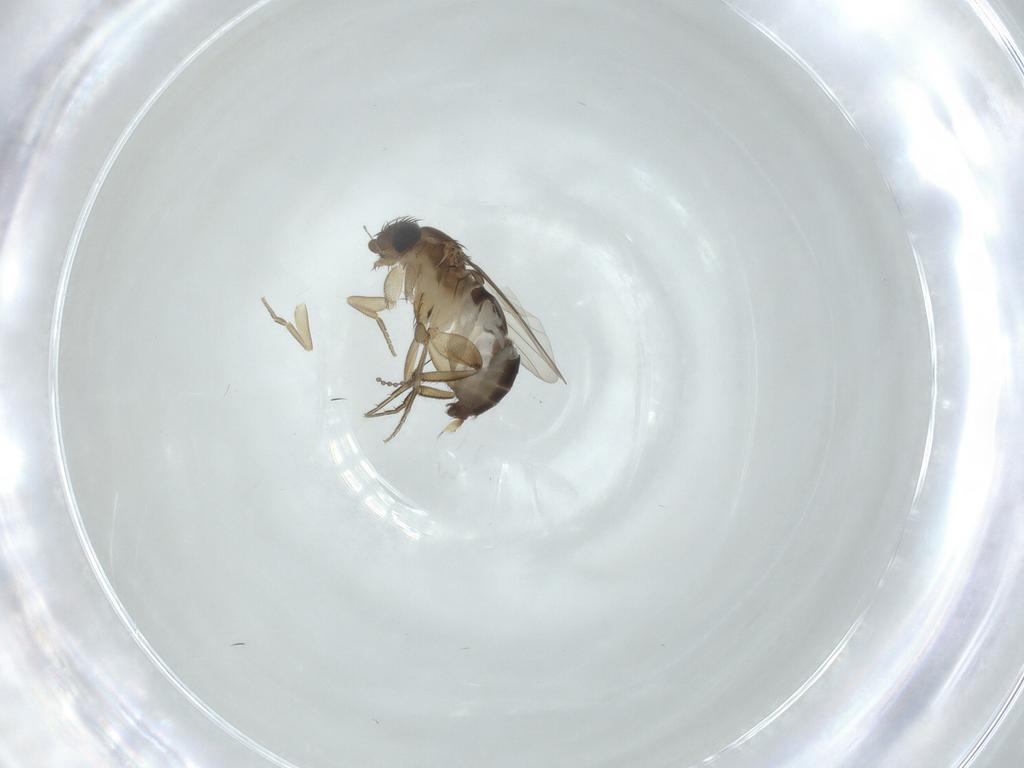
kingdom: Animalia
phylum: Arthropoda
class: Insecta
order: Diptera
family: Phoridae
